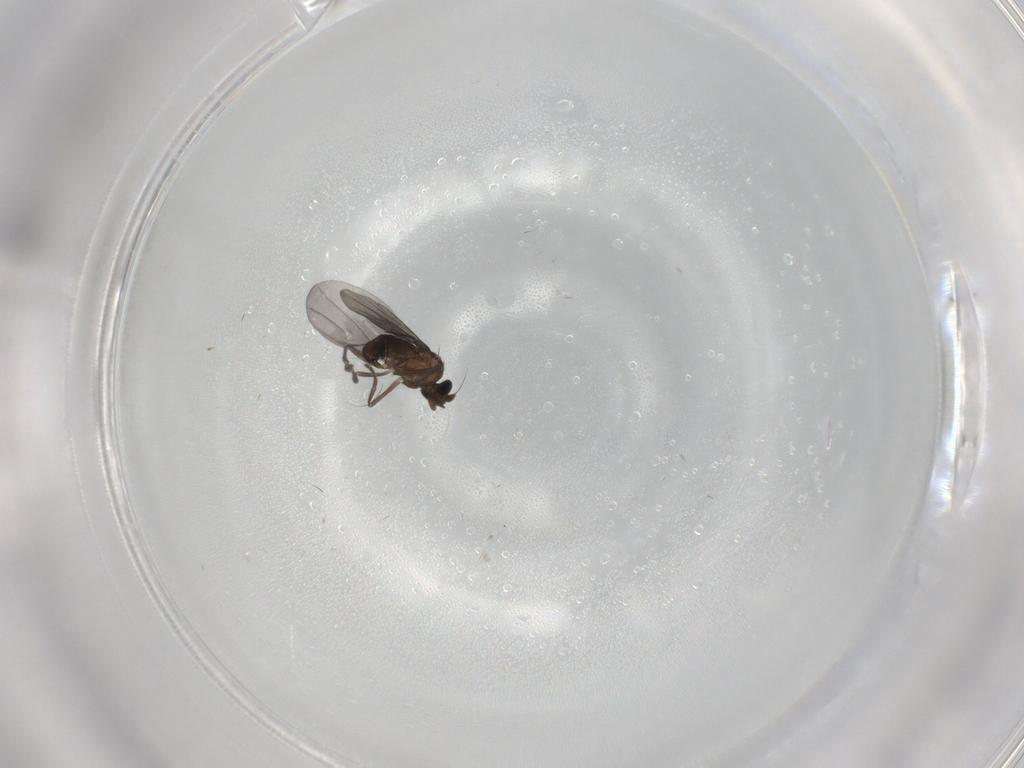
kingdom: Animalia
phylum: Arthropoda
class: Insecta
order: Diptera
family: Phoridae
